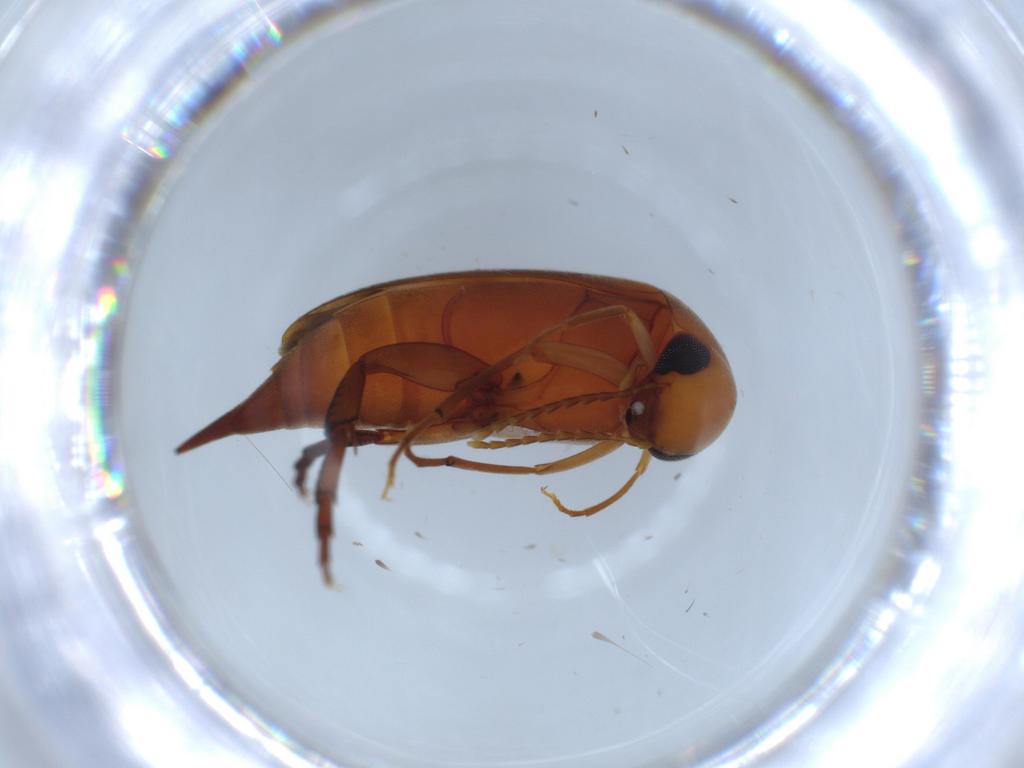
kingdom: Animalia
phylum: Arthropoda
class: Insecta
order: Coleoptera
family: Mordellidae
